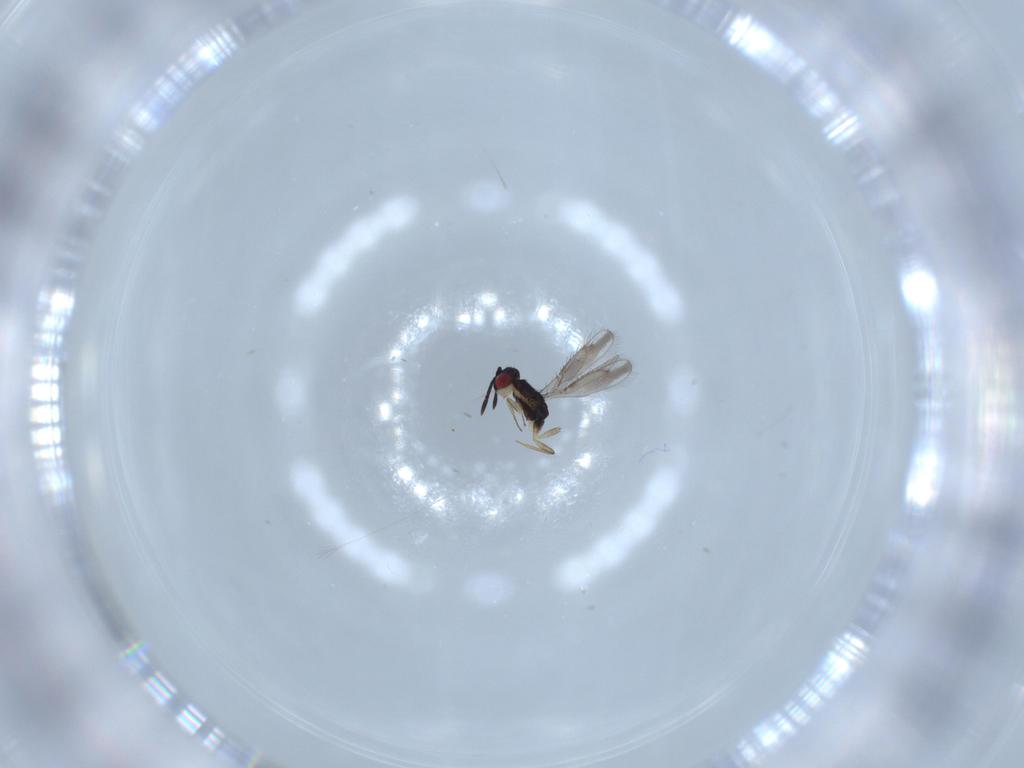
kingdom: Animalia
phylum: Arthropoda
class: Insecta
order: Hymenoptera
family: Pteromalidae
